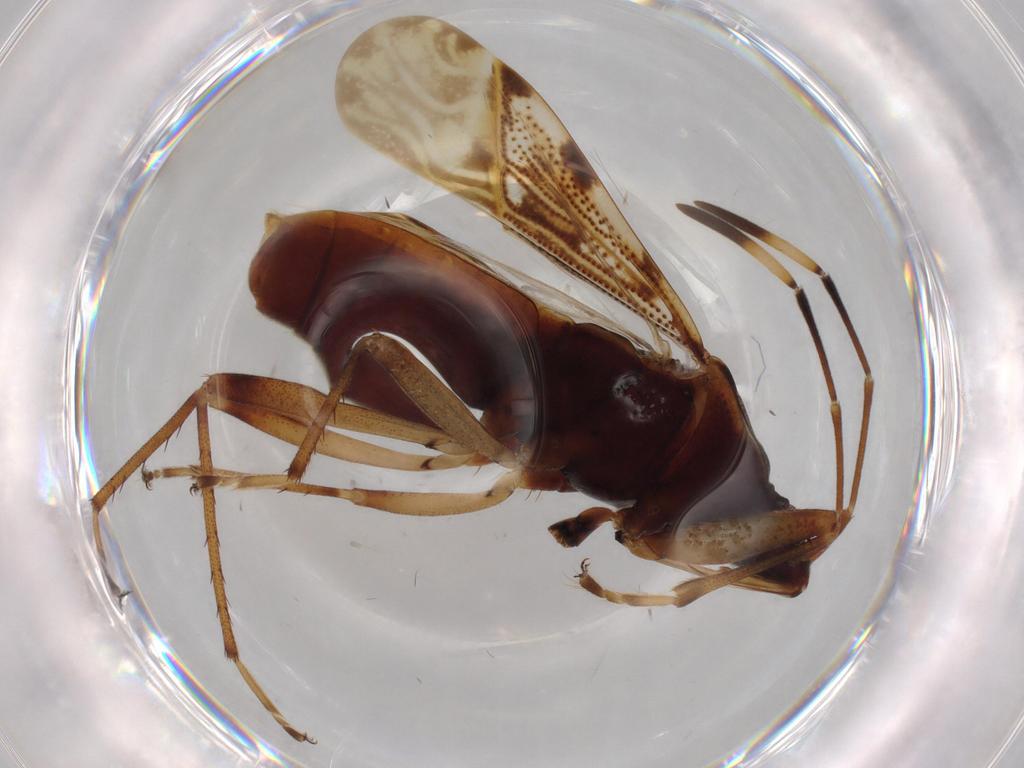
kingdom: Animalia
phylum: Arthropoda
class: Insecta
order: Hemiptera
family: Rhyparochromidae
